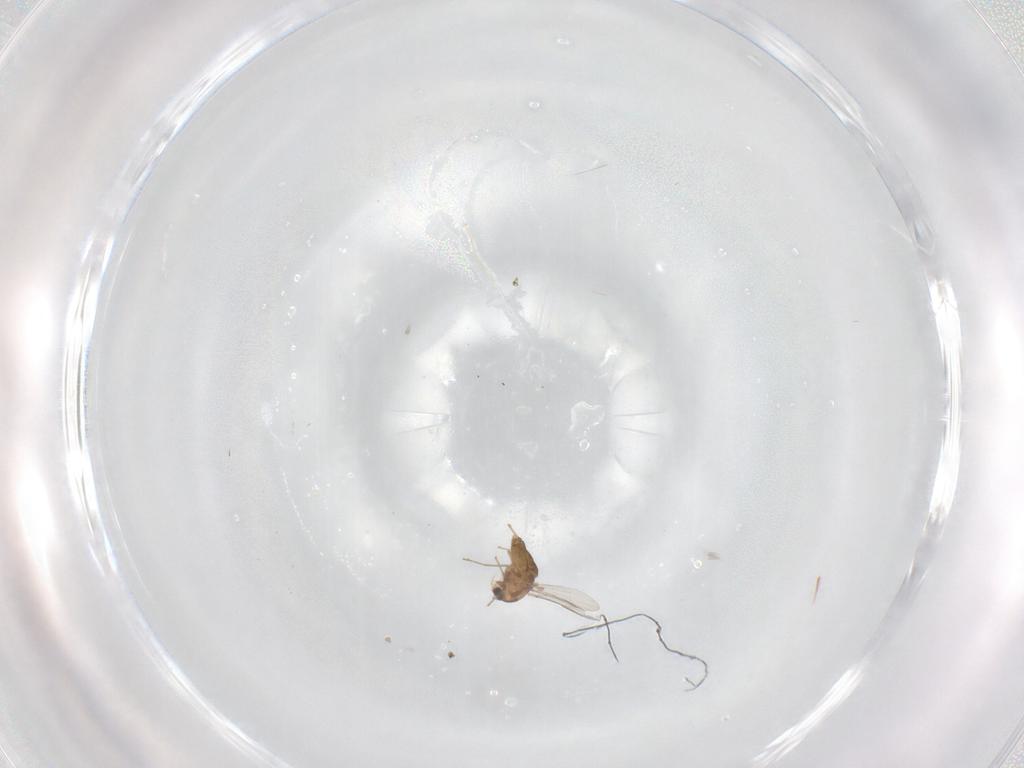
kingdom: Animalia
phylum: Arthropoda
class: Insecta
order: Diptera
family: Chironomidae
